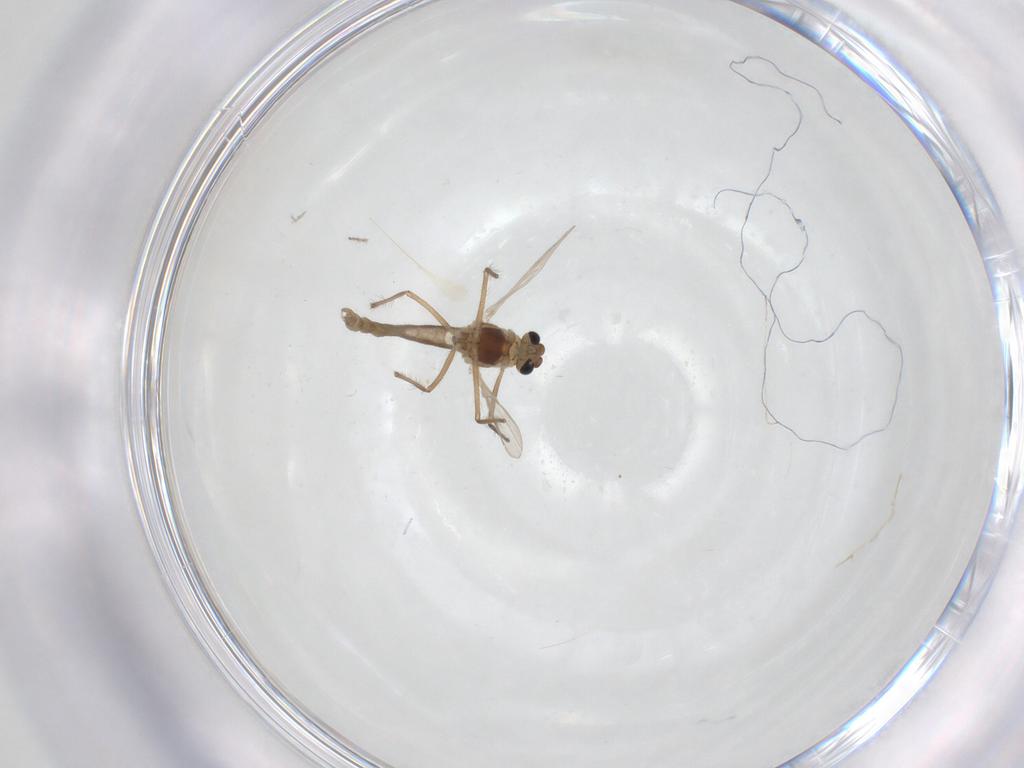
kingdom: Animalia
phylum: Arthropoda
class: Insecta
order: Diptera
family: Chironomidae
